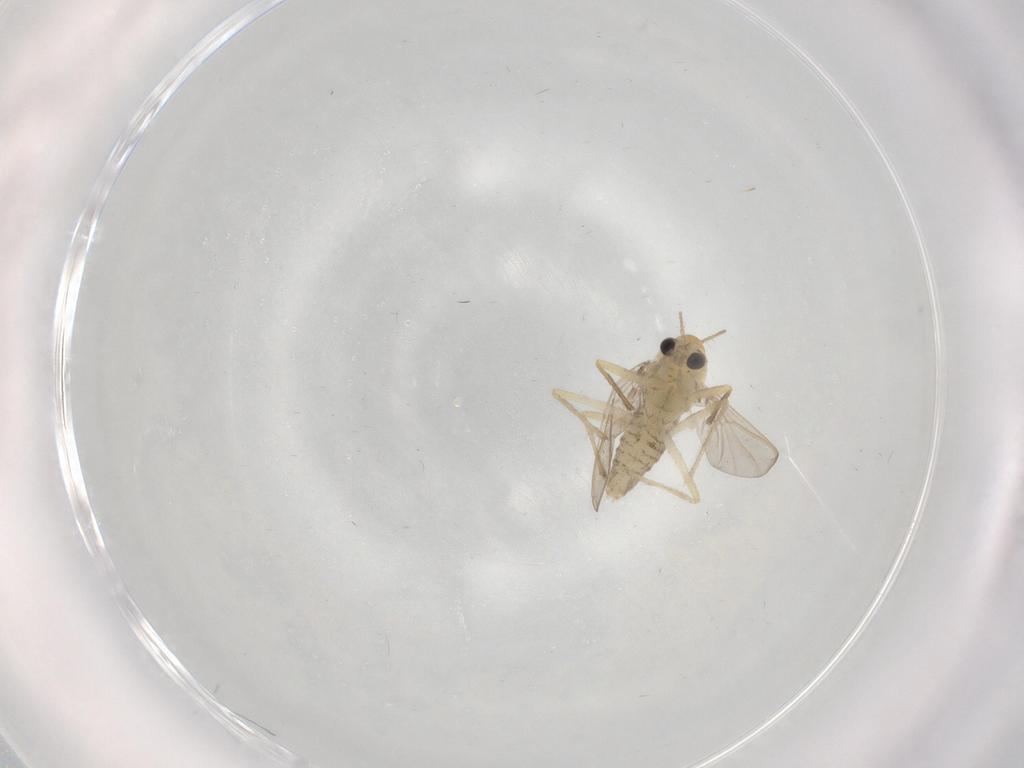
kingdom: Animalia
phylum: Arthropoda
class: Insecta
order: Diptera
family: Chironomidae
